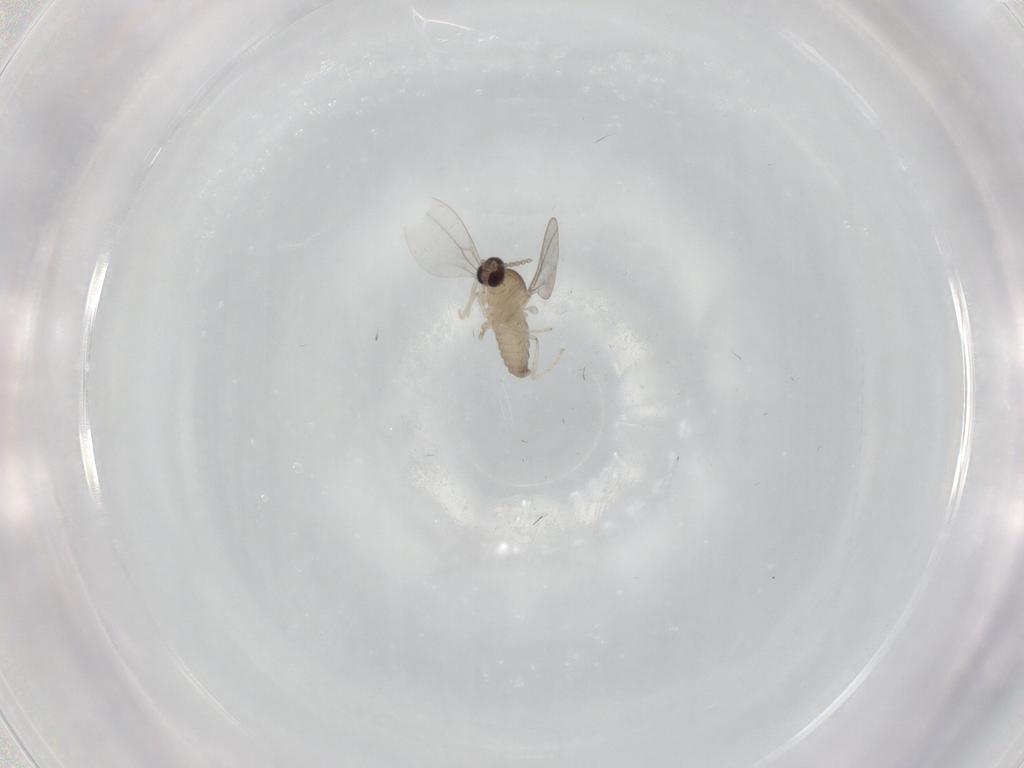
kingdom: Animalia
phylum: Arthropoda
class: Insecta
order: Diptera
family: Cecidomyiidae
